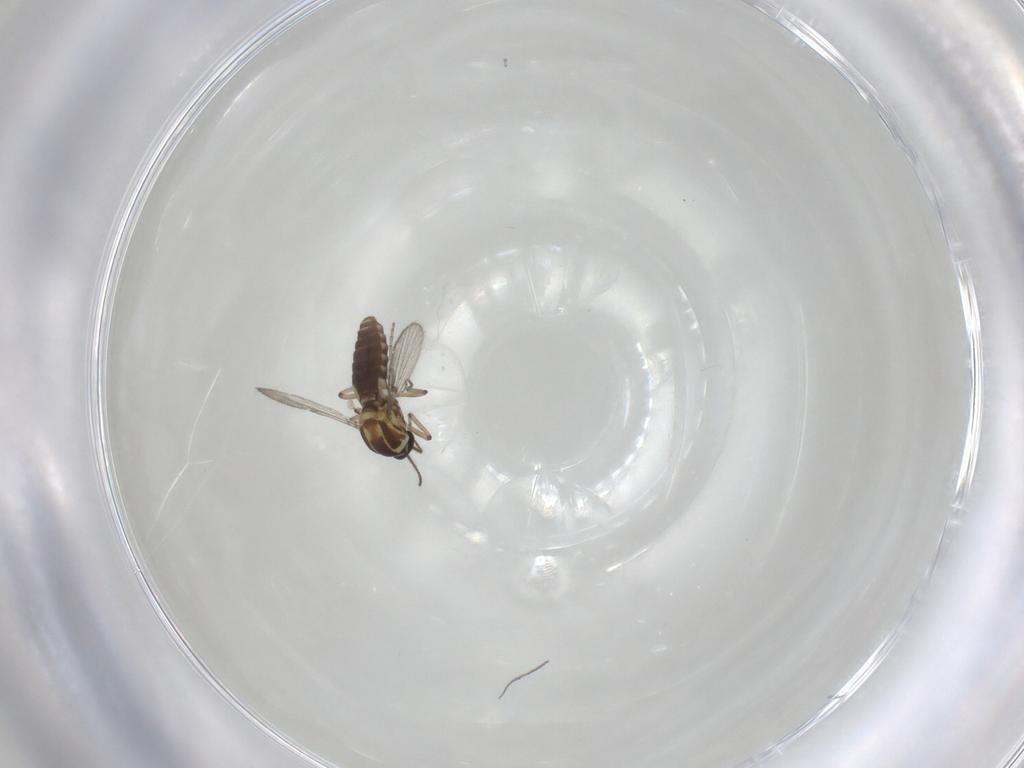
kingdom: Animalia
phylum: Arthropoda
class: Insecta
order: Diptera
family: Ceratopogonidae
